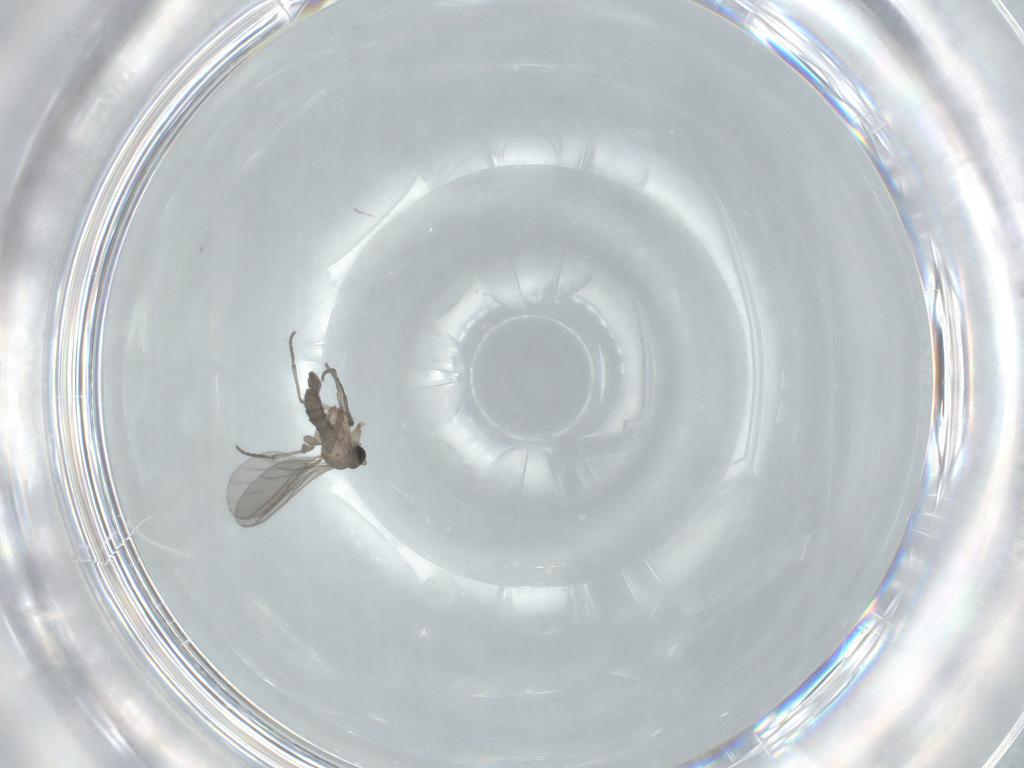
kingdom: Animalia
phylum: Arthropoda
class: Insecta
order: Diptera
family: Sciaridae
